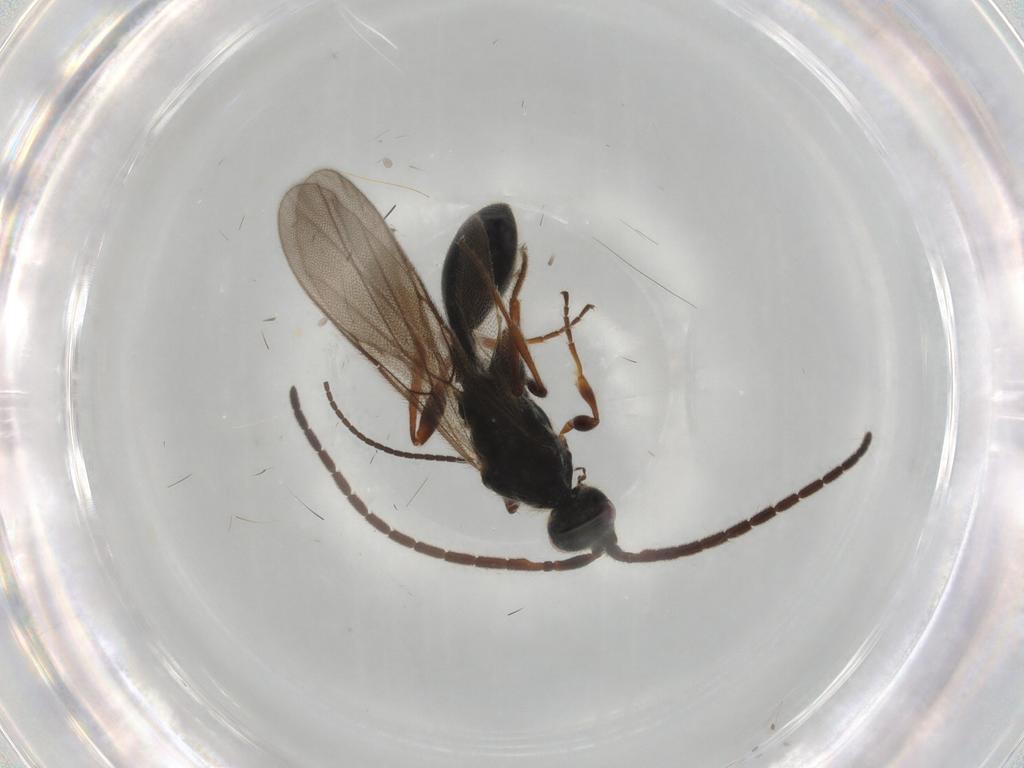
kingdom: Animalia
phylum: Arthropoda
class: Insecta
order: Hymenoptera
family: Braconidae
